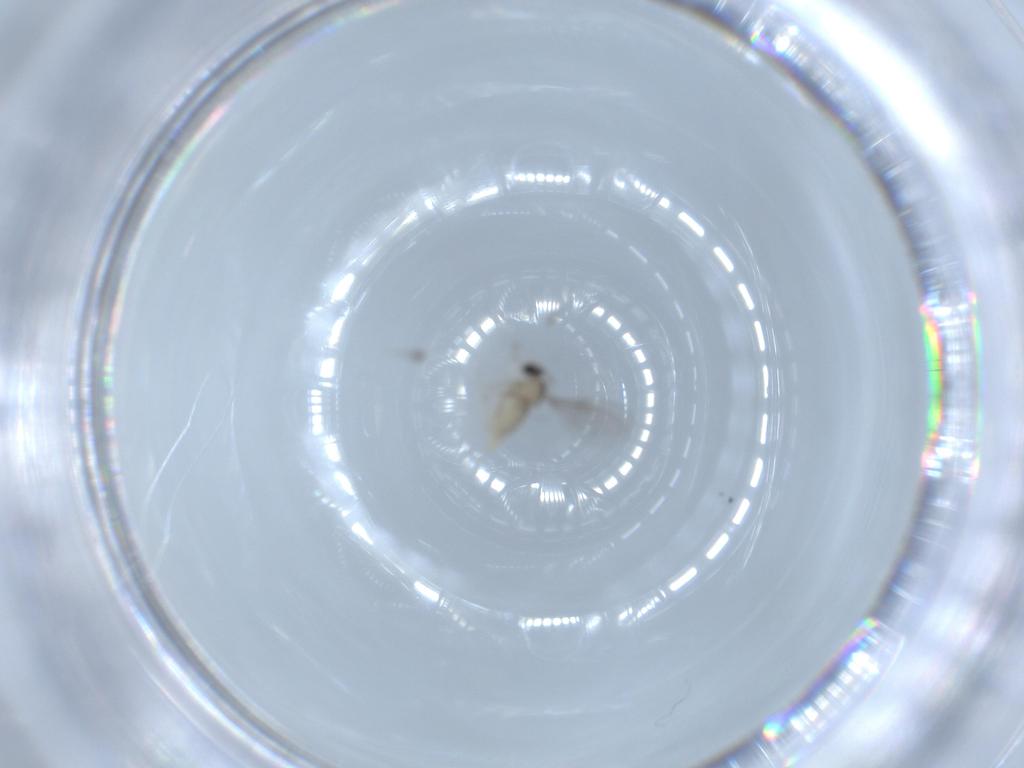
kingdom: Animalia
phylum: Arthropoda
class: Insecta
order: Diptera
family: Cecidomyiidae
